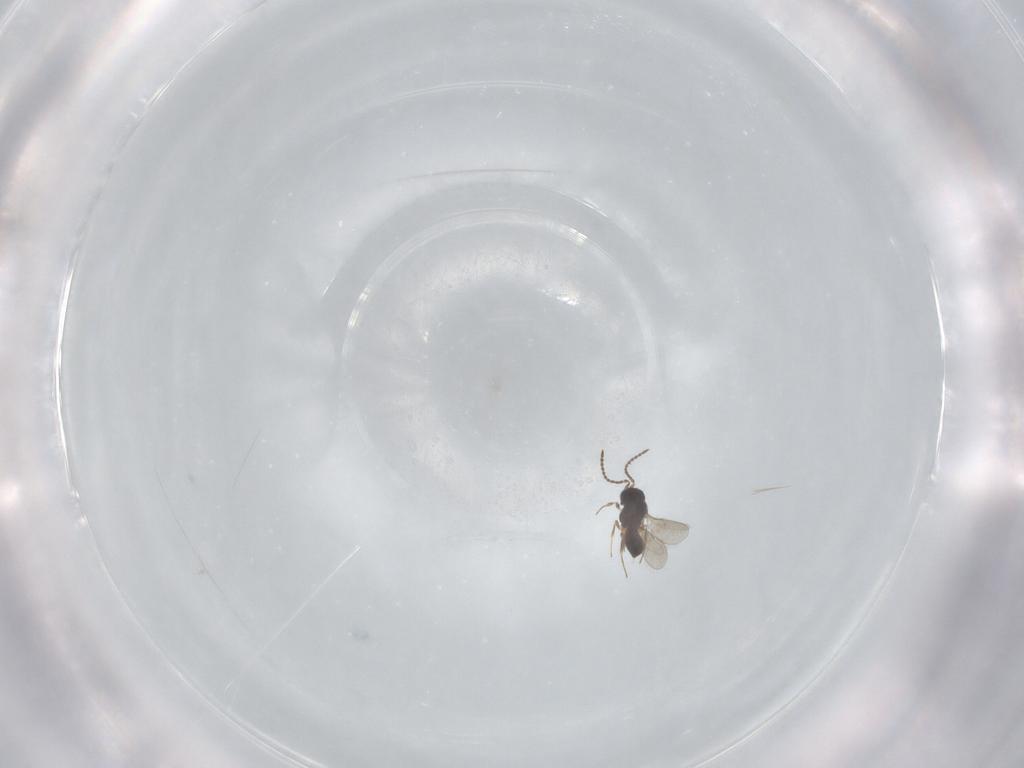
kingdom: Animalia
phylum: Arthropoda
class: Insecta
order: Hymenoptera
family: Scelionidae
